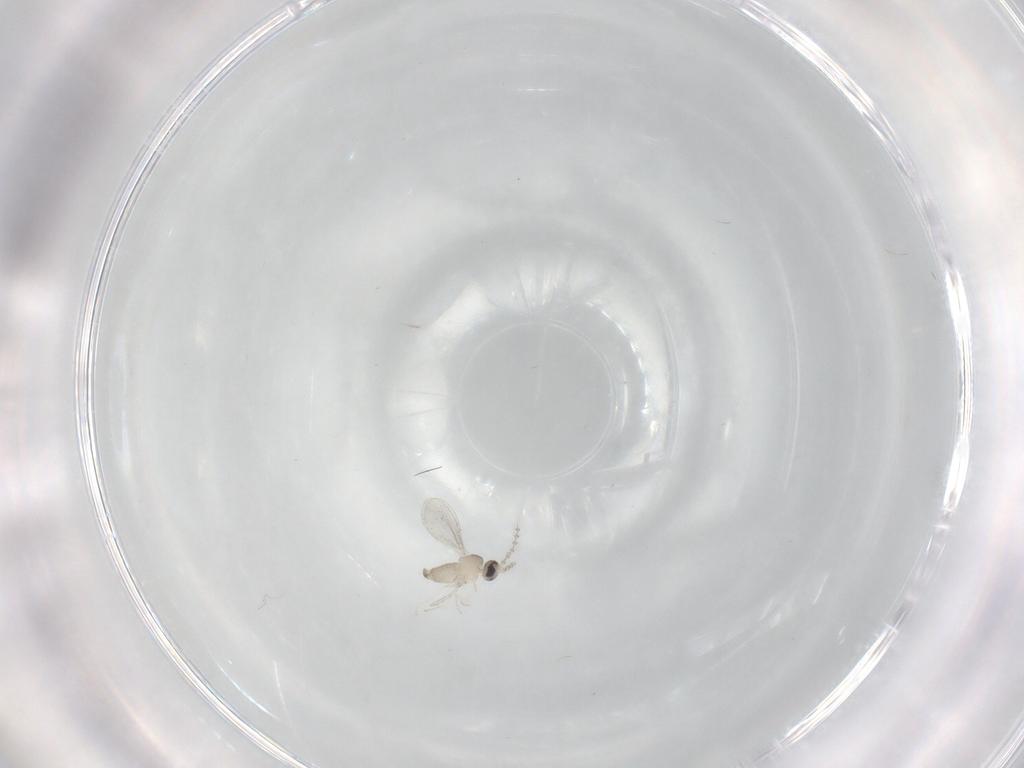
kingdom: Animalia
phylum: Arthropoda
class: Insecta
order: Diptera
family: Cecidomyiidae
